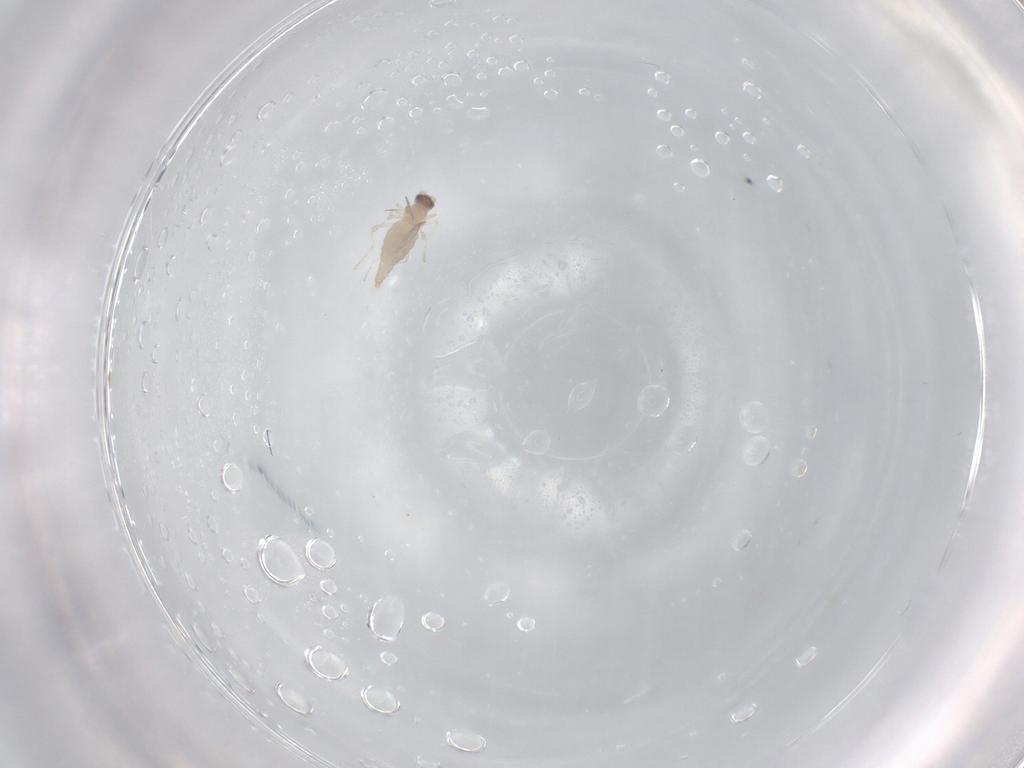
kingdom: Animalia
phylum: Arthropoda
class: Insecta
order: Diptera
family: Cecidomyiidae
